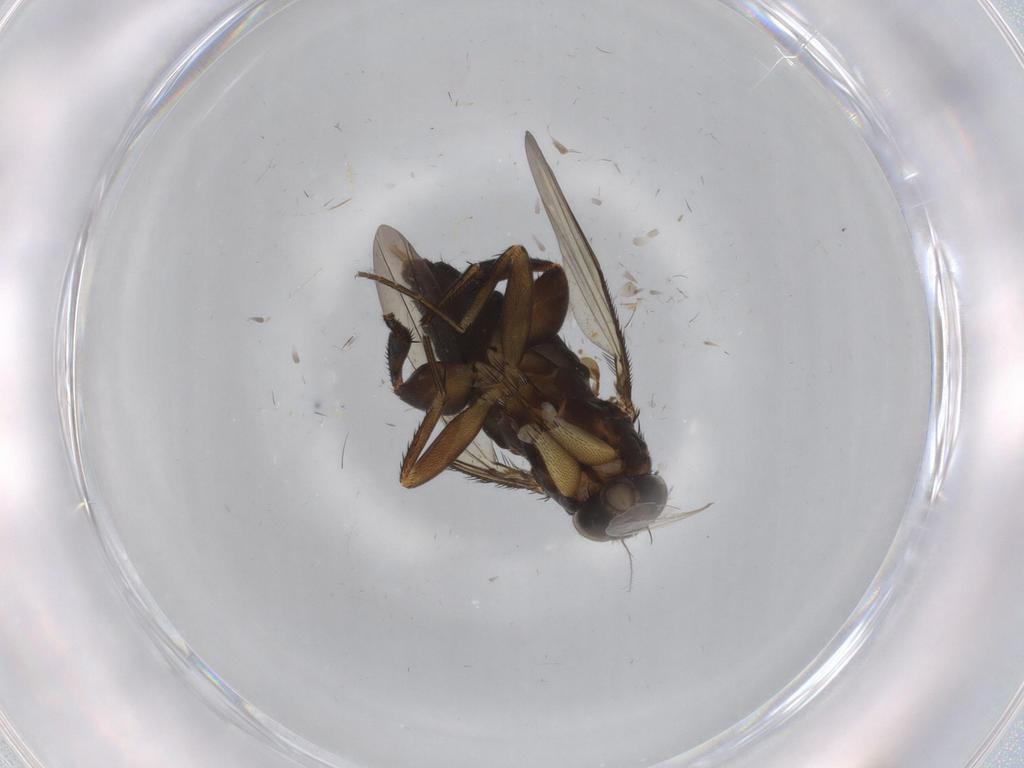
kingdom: Animalia
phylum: Arthropoda
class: Insecta
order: Diptera
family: Phoridae
